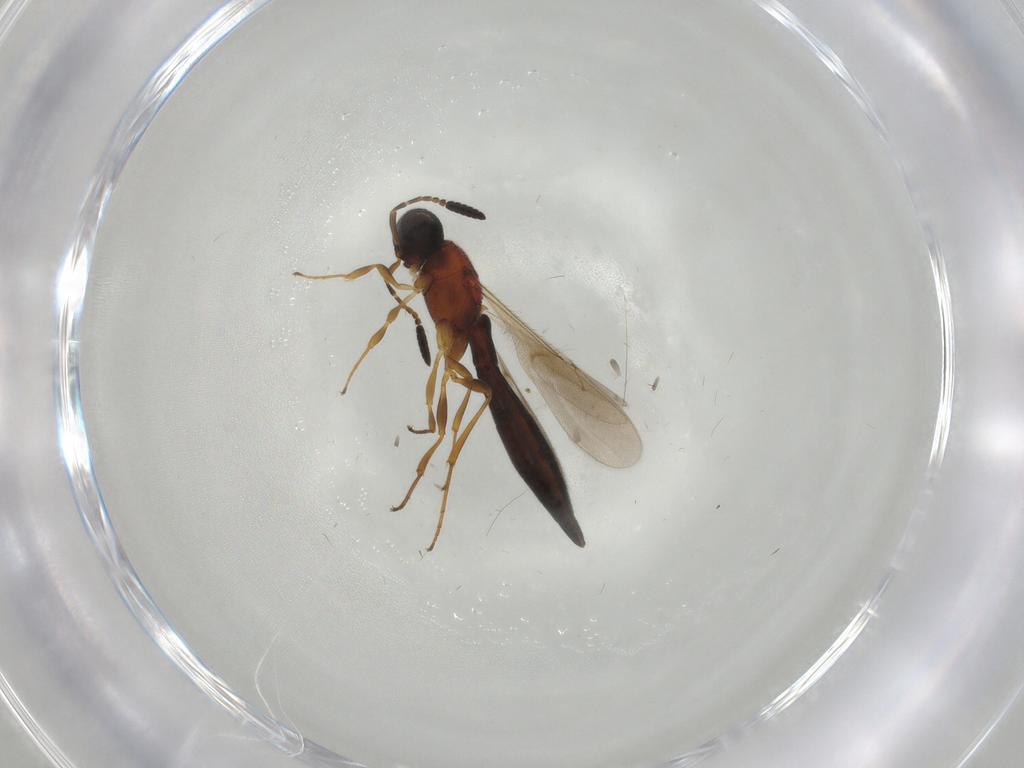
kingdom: Animalia
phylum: Arthropoda
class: Insecta
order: Hymenoptera
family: Scelionidae
